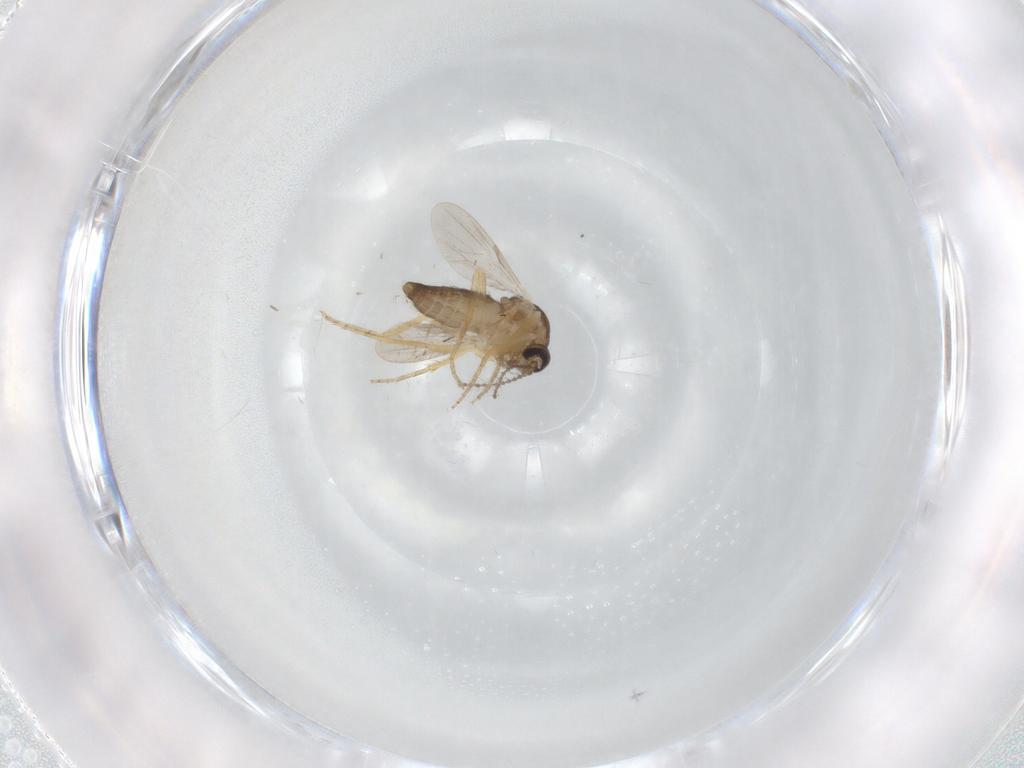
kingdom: Animalia
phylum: Arthropoda
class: Insecta
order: Diptera
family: Ceratopogonidae
